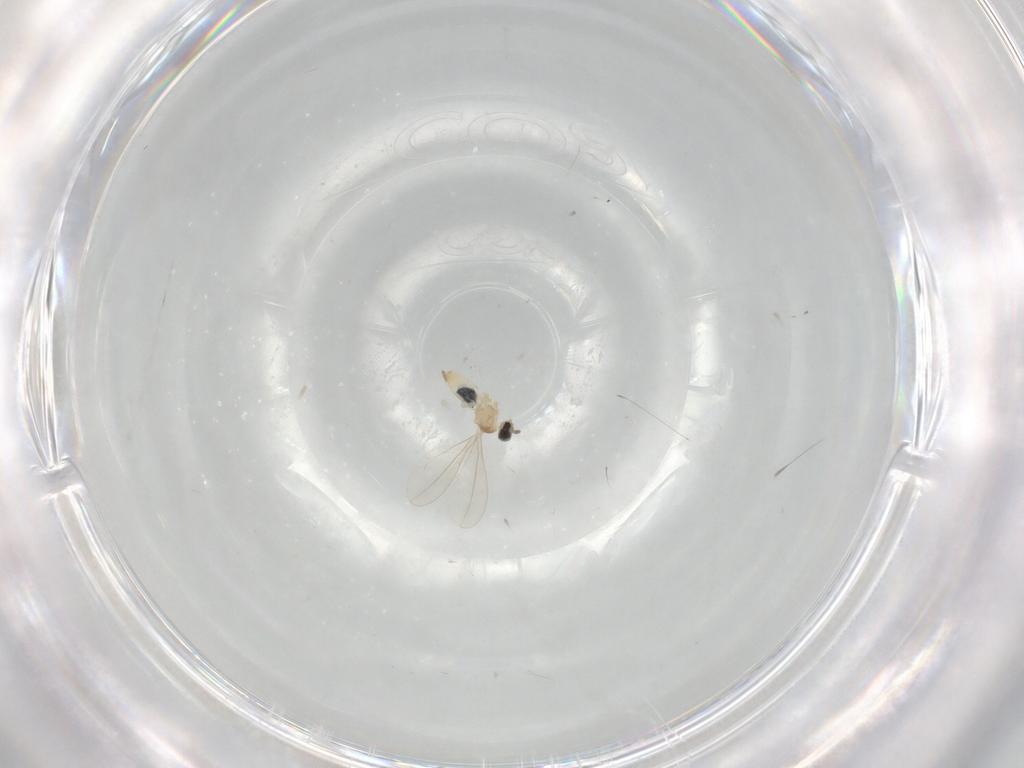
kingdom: Animalia
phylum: Arthropoda
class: Insecta
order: Diptera
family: Cecidomyiidae
